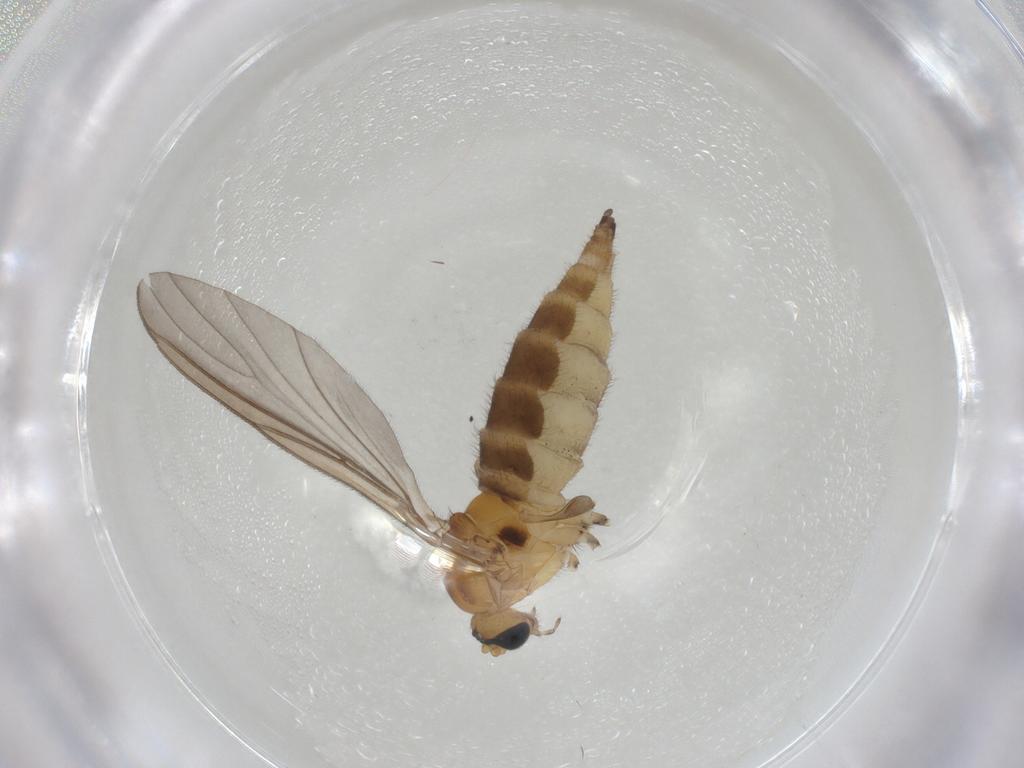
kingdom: Animalia
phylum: Arthropoda
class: Insecta
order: Diptera
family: Sciaridae
